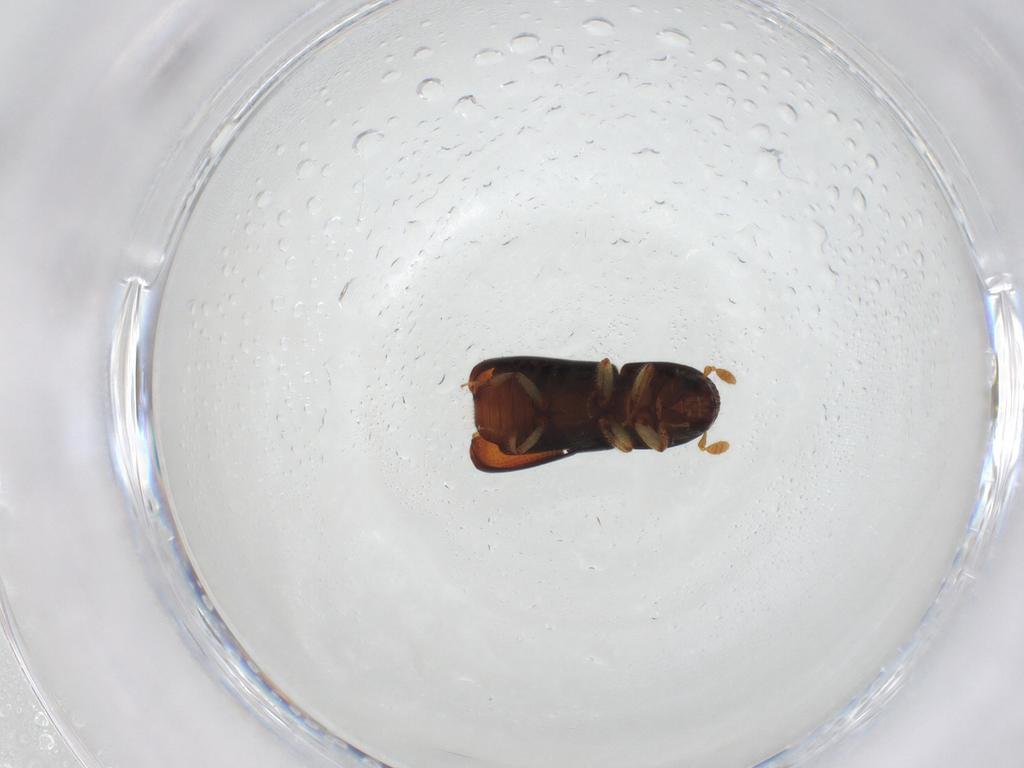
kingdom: Animalia
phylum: Arthropoda
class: Insecta
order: Coleoptera
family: Curculionidae
